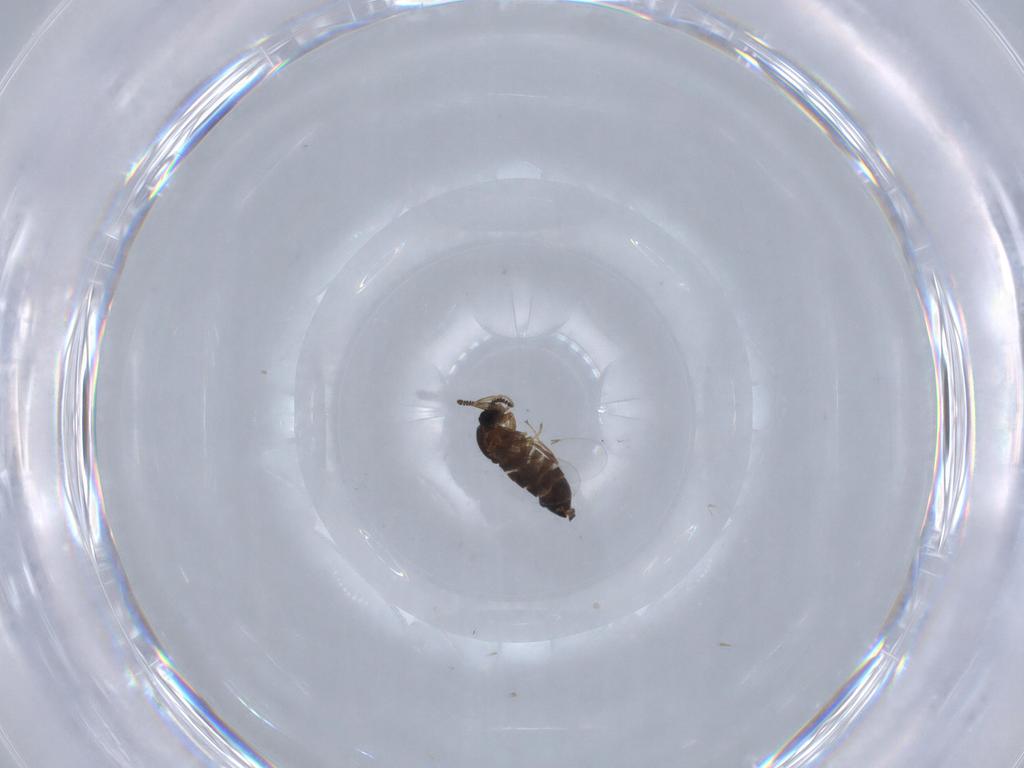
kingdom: Animalia
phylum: Arthropoda
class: Insecta
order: Diptera
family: Scatopsidae
